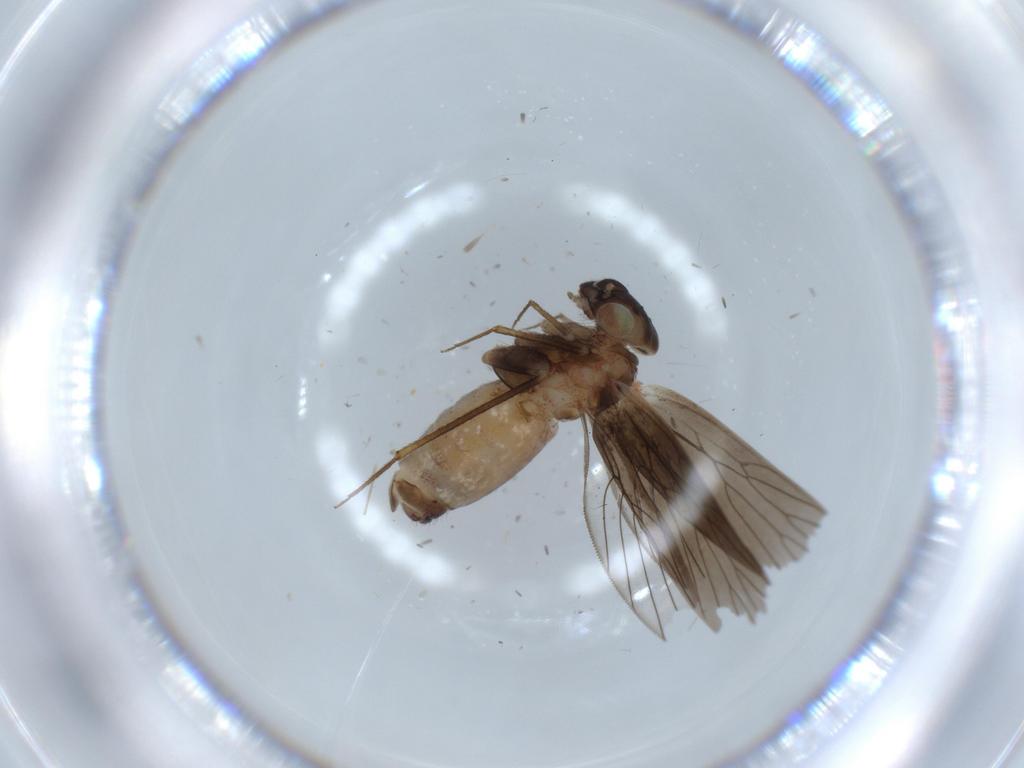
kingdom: Animalia
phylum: Arthropoda
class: Insecta
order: Psocodea
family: Lepidopsocidae
